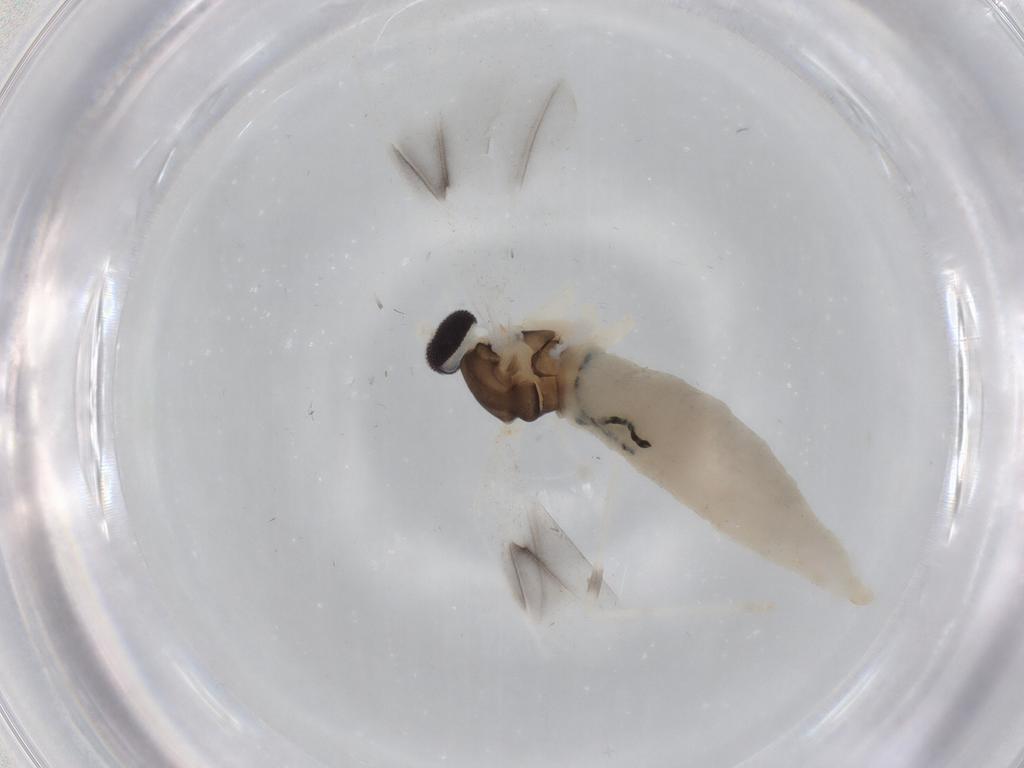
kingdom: Animalia
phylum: Arthropoda
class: Insecta
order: Diptera
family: Cecidomyiidae
